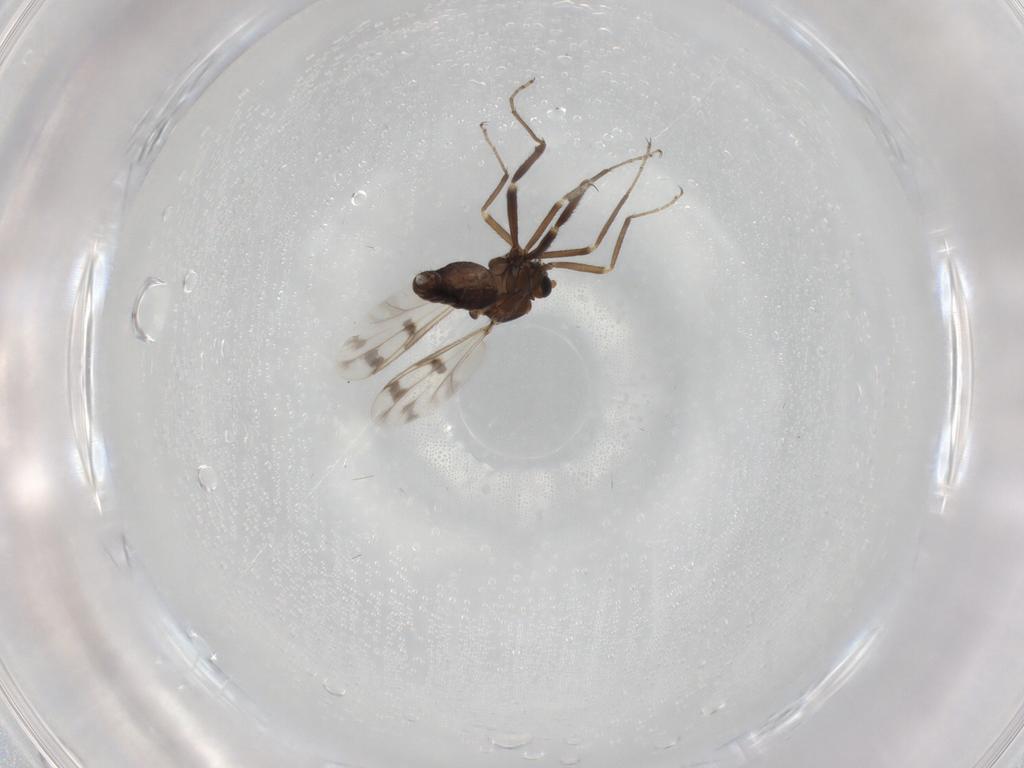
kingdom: Animalia
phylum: Arthropoda
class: Insecta
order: Diptera
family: Ceratopogonidae
